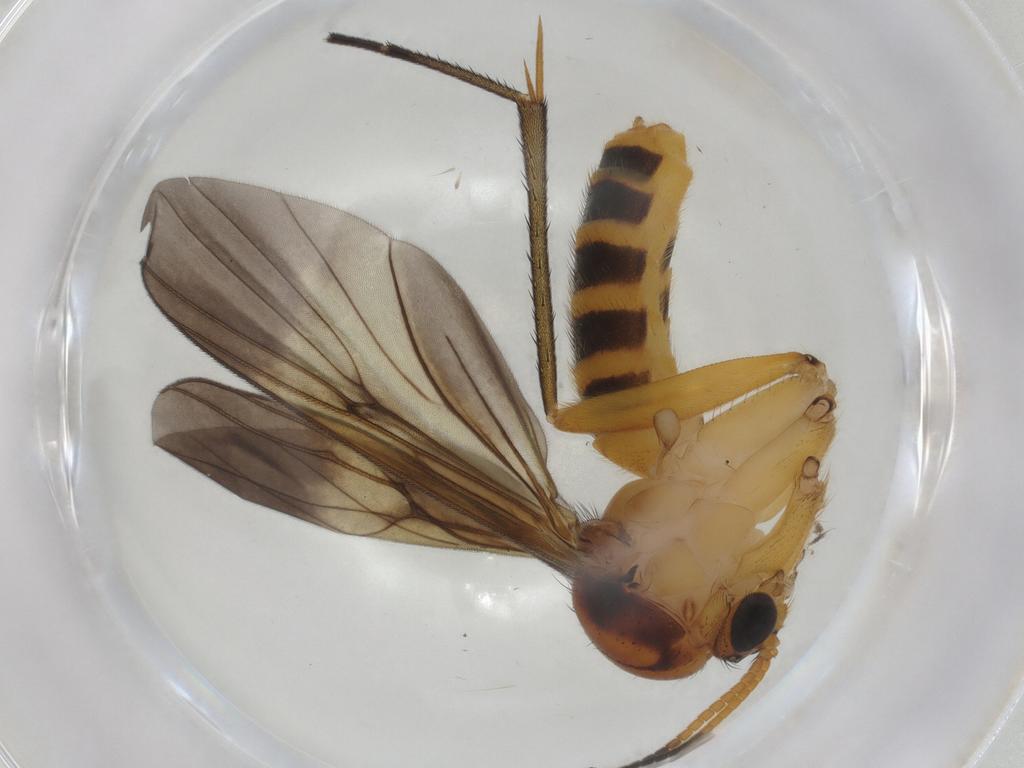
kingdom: Animalia
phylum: Arthropoda
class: Insecta
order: Diptera
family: Mycetophilidae
